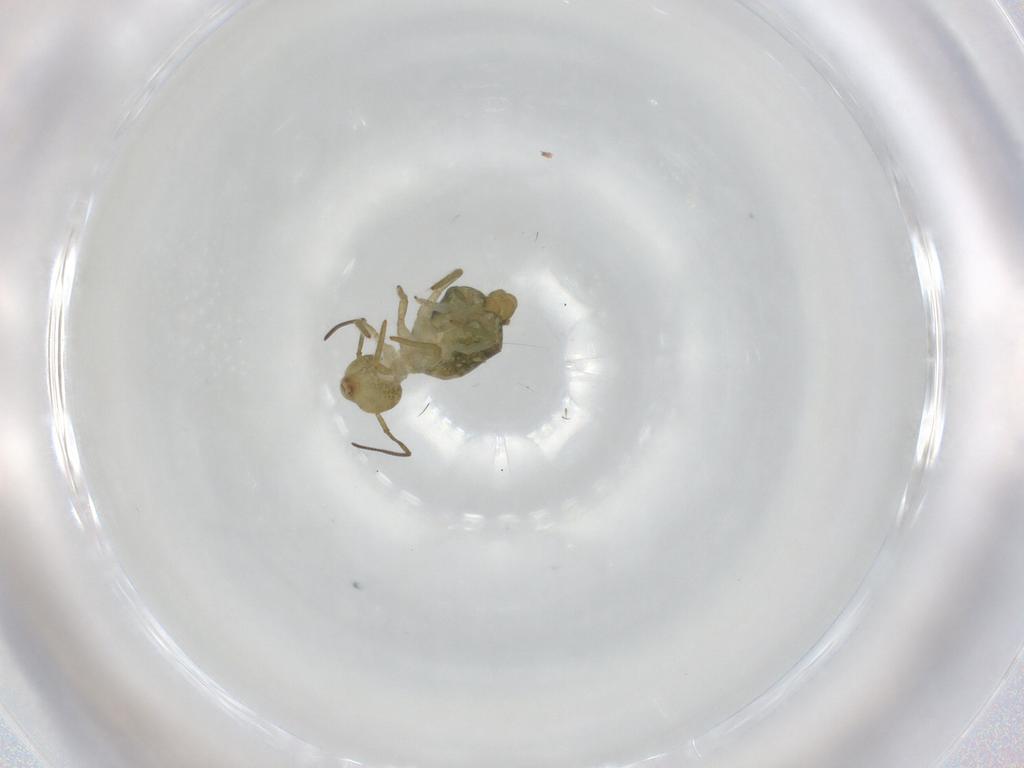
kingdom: Animalia
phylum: Arthropoda
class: Collembola
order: Symphypleona
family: Sminthuridae
